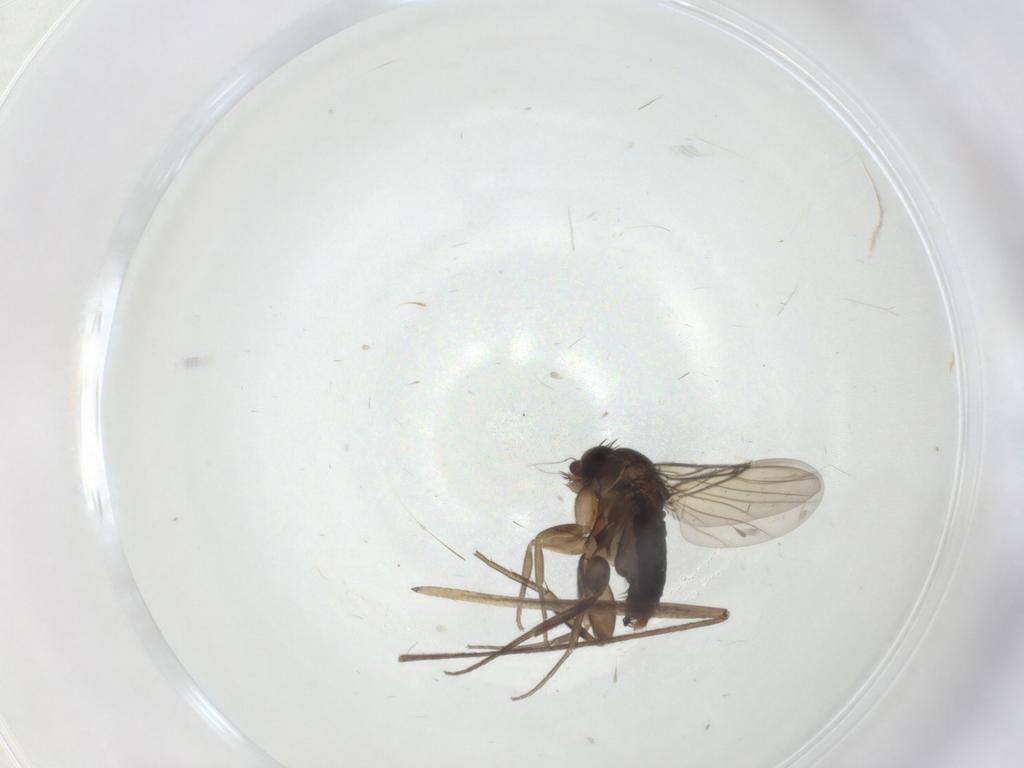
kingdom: Animalia
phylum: Arthropoda
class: Insecta
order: Diptera
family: Phoridae
